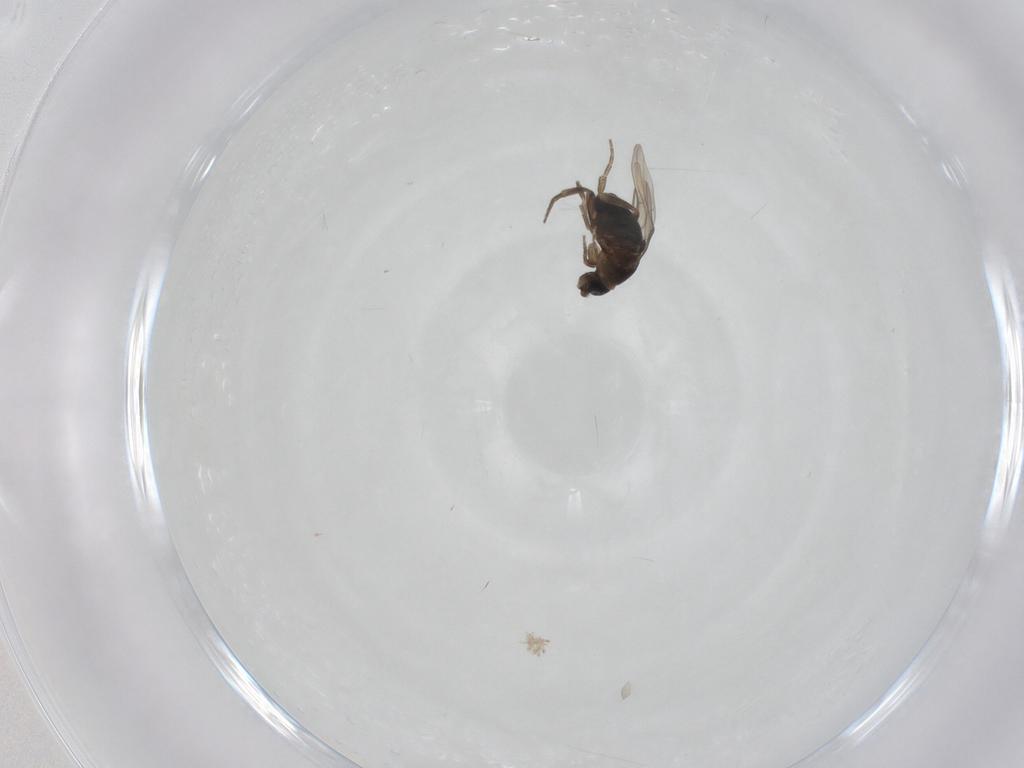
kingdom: Animalia
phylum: Arthropoda
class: Insecta
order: Diptera
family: Phoridae
